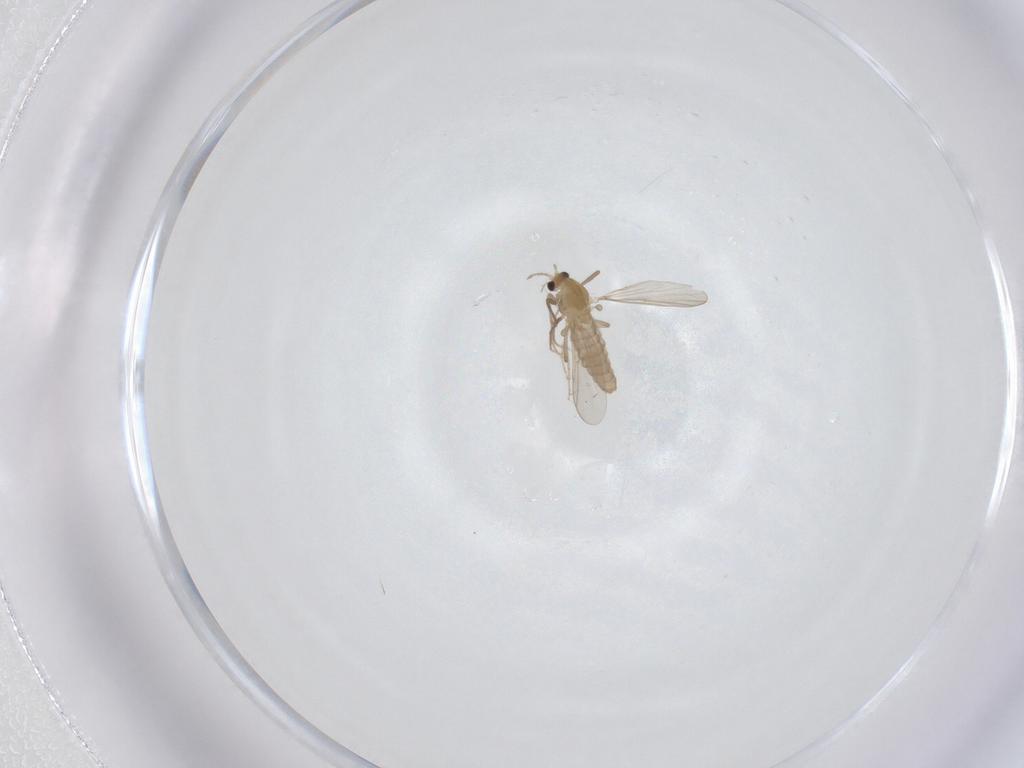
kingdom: Animalia
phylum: Arthropoda
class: Insecta
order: Diptera
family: Chironomidae
